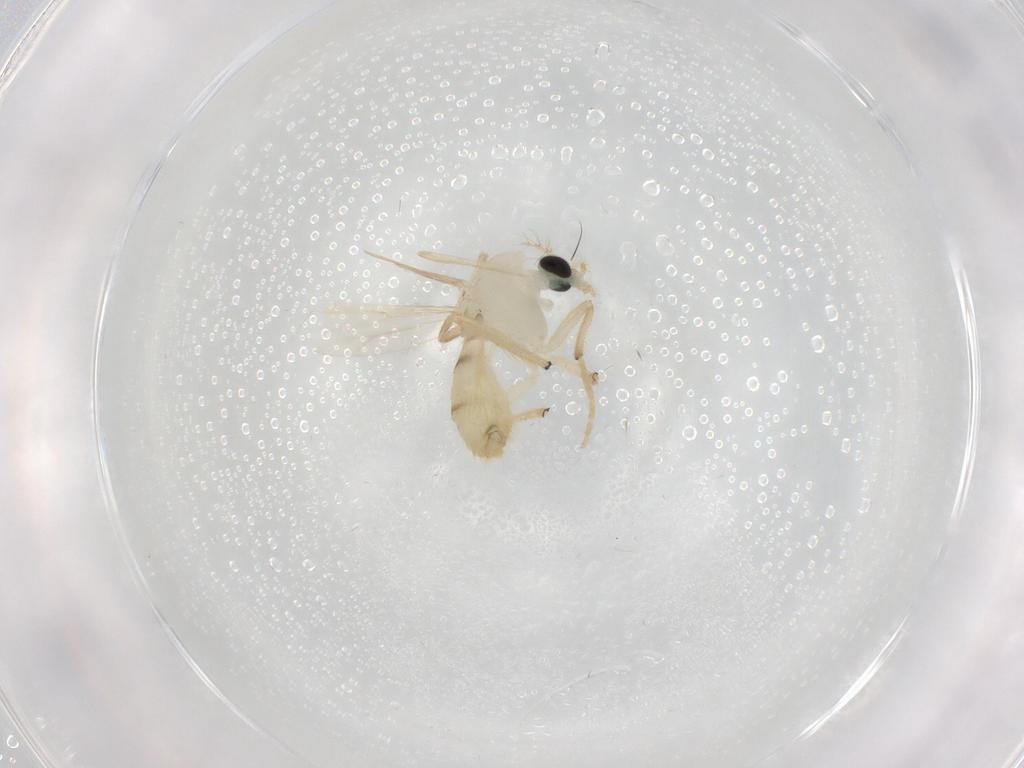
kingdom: Animalia
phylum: Arthropoda
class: Insecta
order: Diptera
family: Chironomidae
